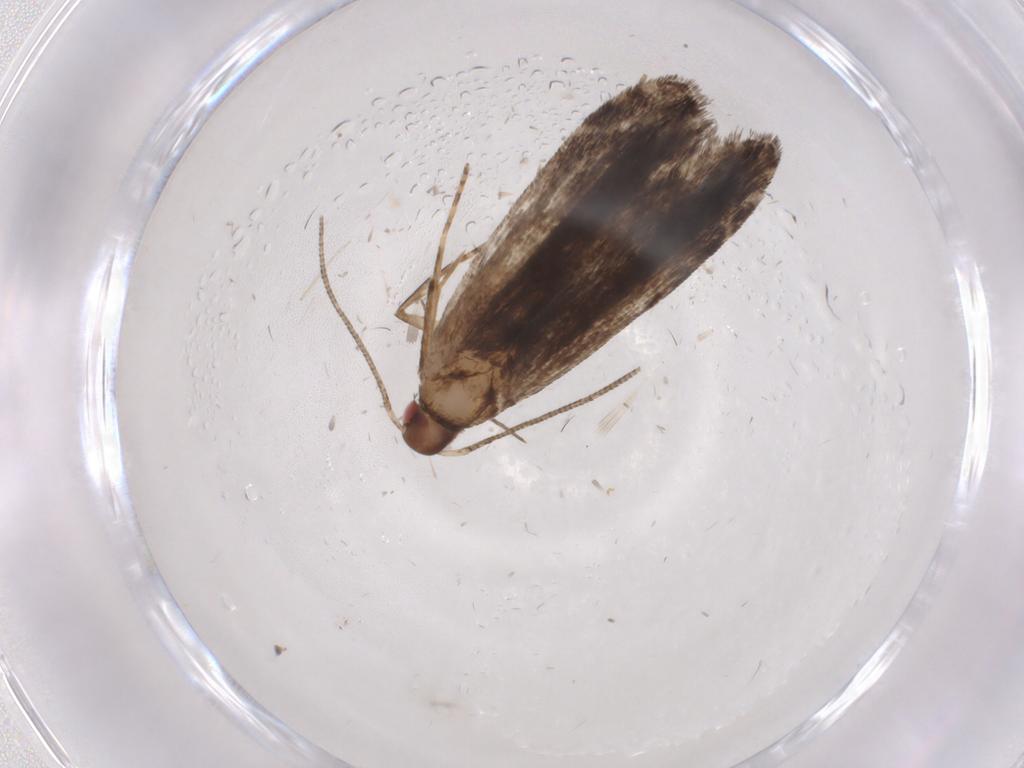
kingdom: Animalia
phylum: Arthropoda
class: Insecta
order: Lepidoptera
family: Gelechiidae
